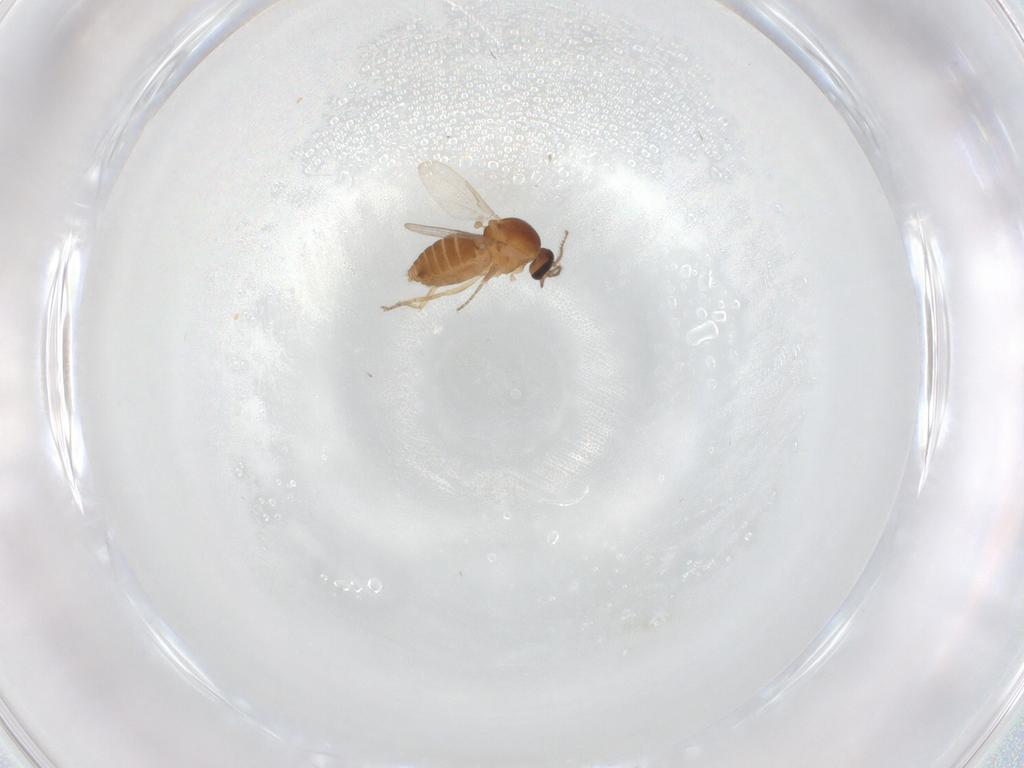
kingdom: Animalia
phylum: Arthropoda
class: Insecta
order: Diptera
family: Ceratopogonidae
